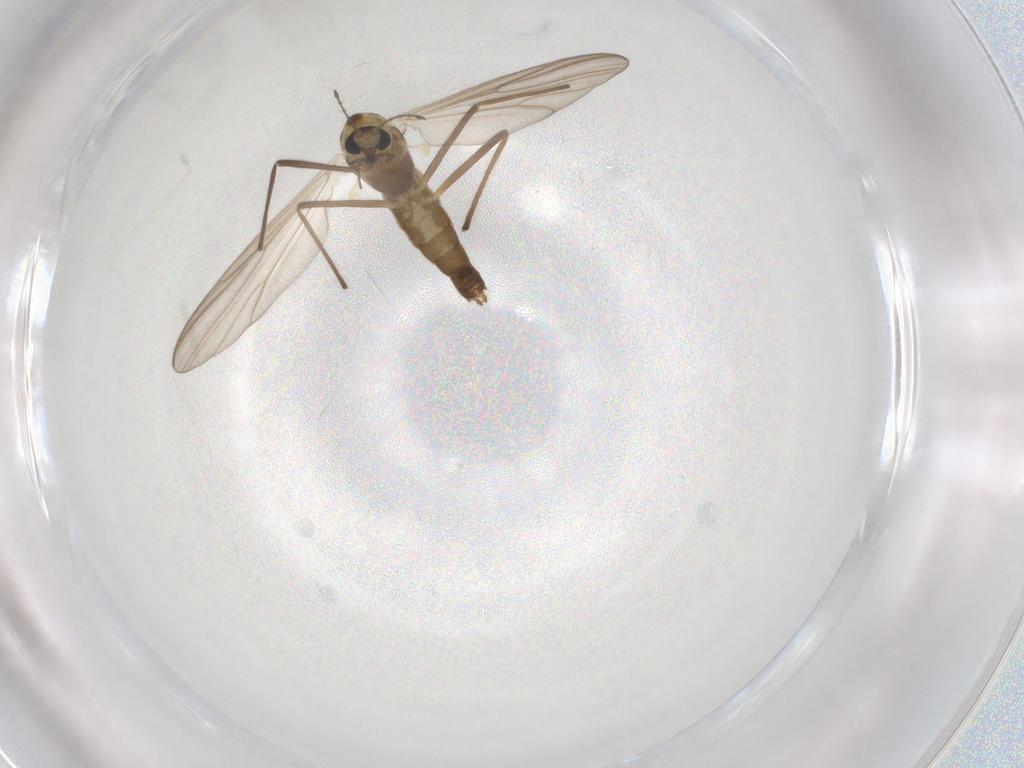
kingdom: Animalia
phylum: Arthropoda
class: Insecta
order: Diptera
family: Chironomidae
